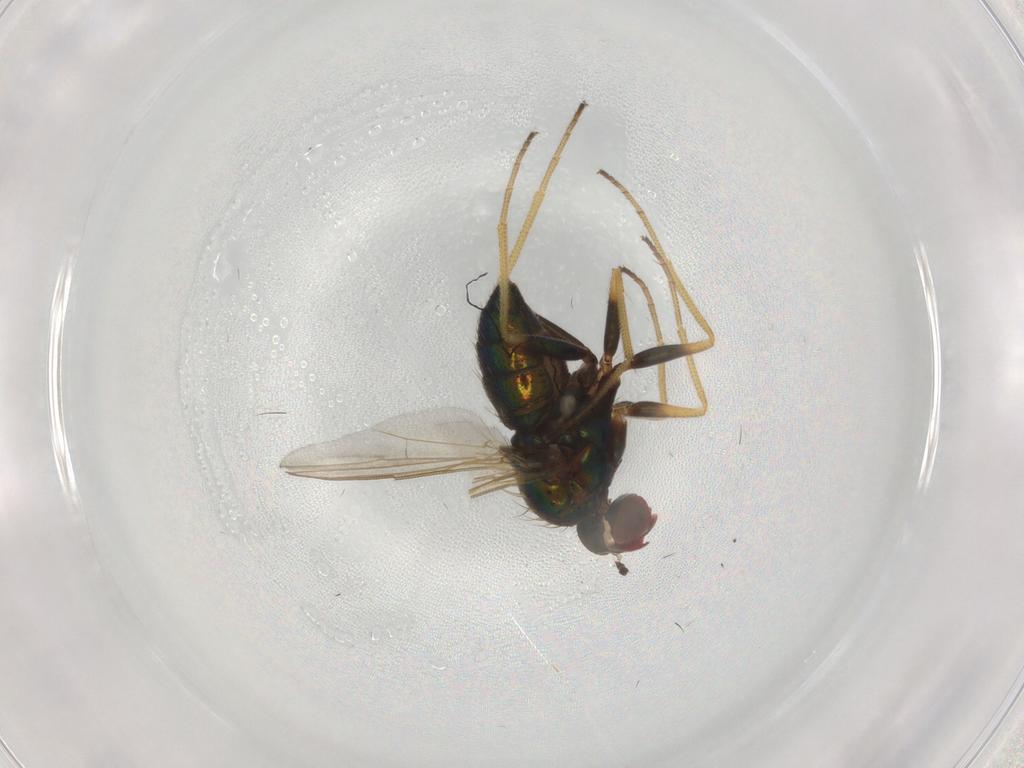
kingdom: Animalia
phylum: Arthropoda
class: Insecta
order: Diptera
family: Dolichopodidae
